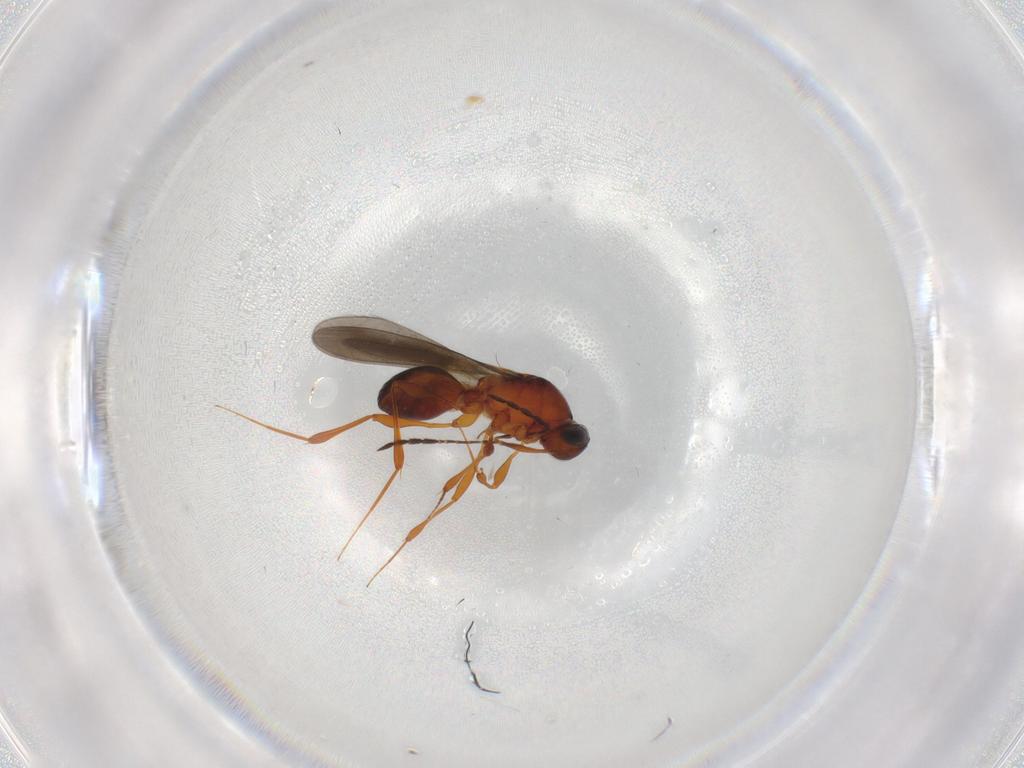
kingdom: Animalia
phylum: Arthropoda
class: Insecta
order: Hymenoptera
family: Platygastridae
